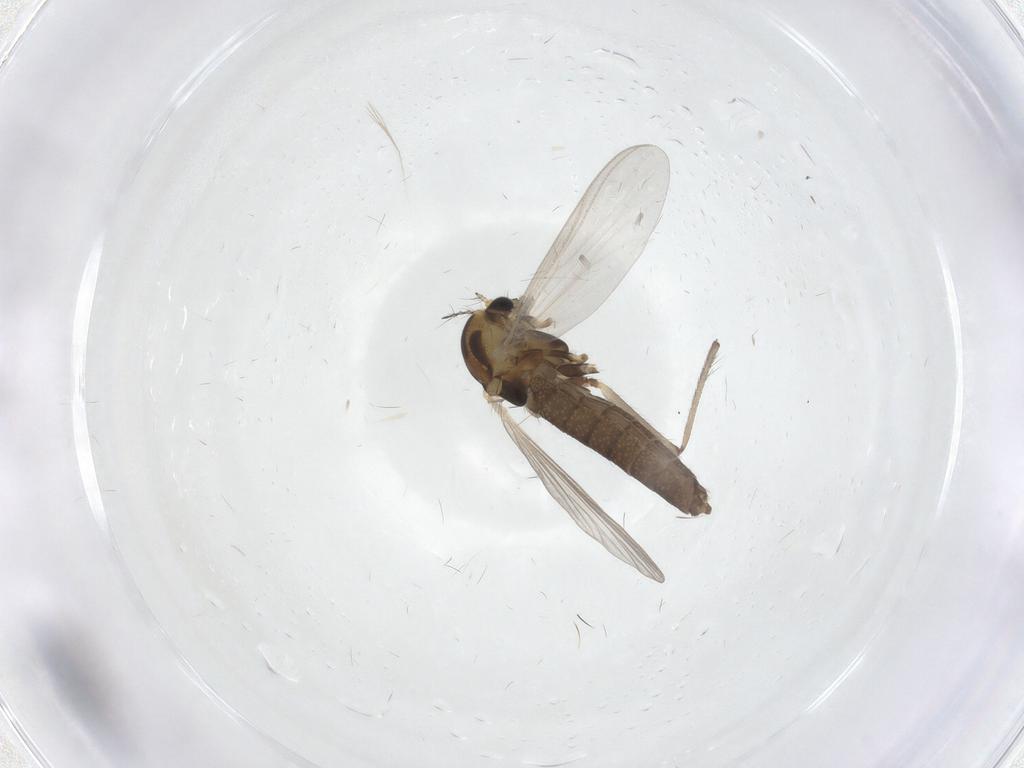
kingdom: Animalia
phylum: Arthropoda
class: Insecta
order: Diptera
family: Chironomidae
